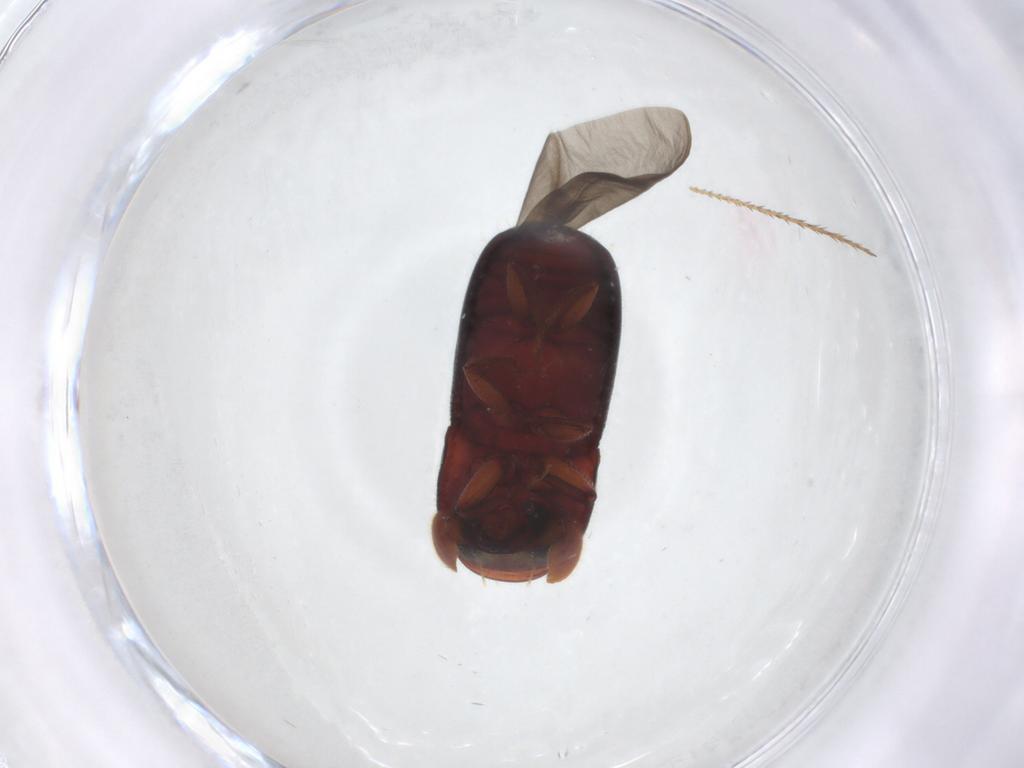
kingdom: Animalia
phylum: Arthropoda
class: Insecta
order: Coleoptera
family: Curculionidae
